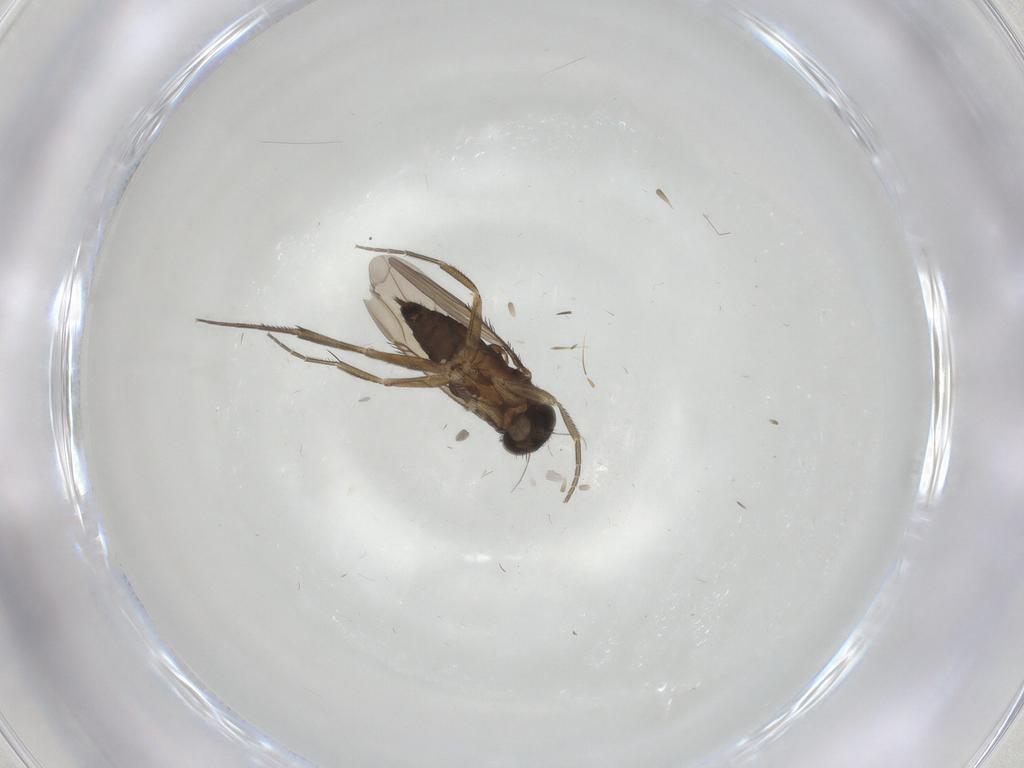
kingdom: Animalia
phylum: Arthropoda
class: Insecta
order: Diptera
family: Phoridae
